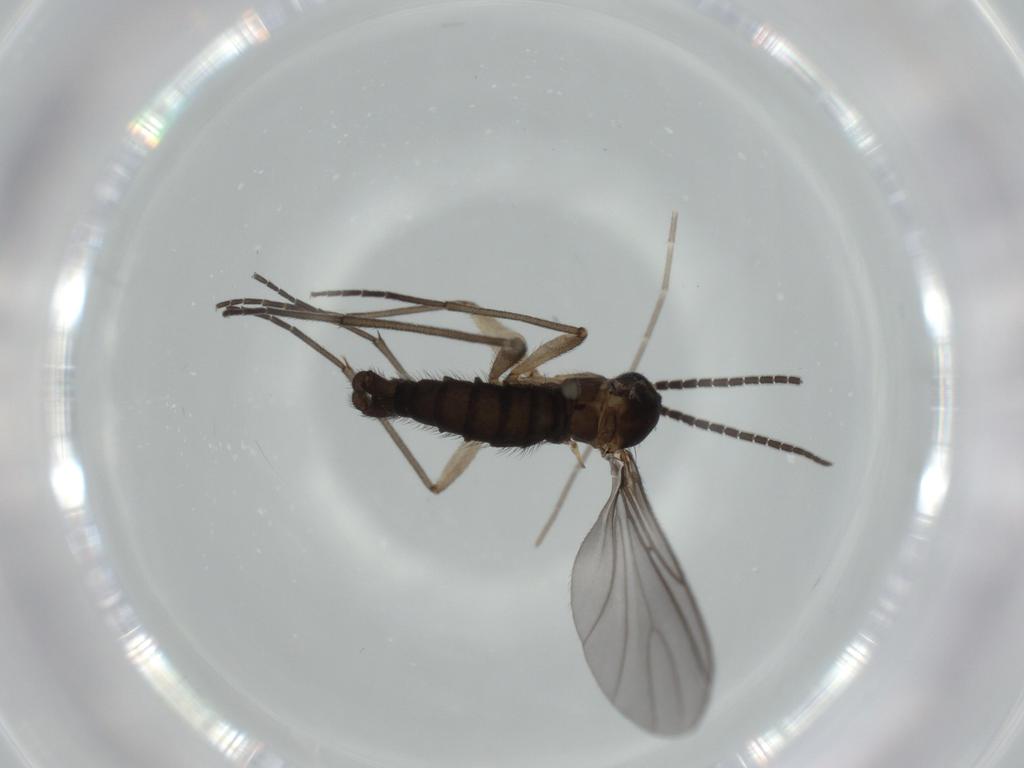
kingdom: Animalia
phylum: Arthropoda
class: Insecta
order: Diptera
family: Sciaridae
